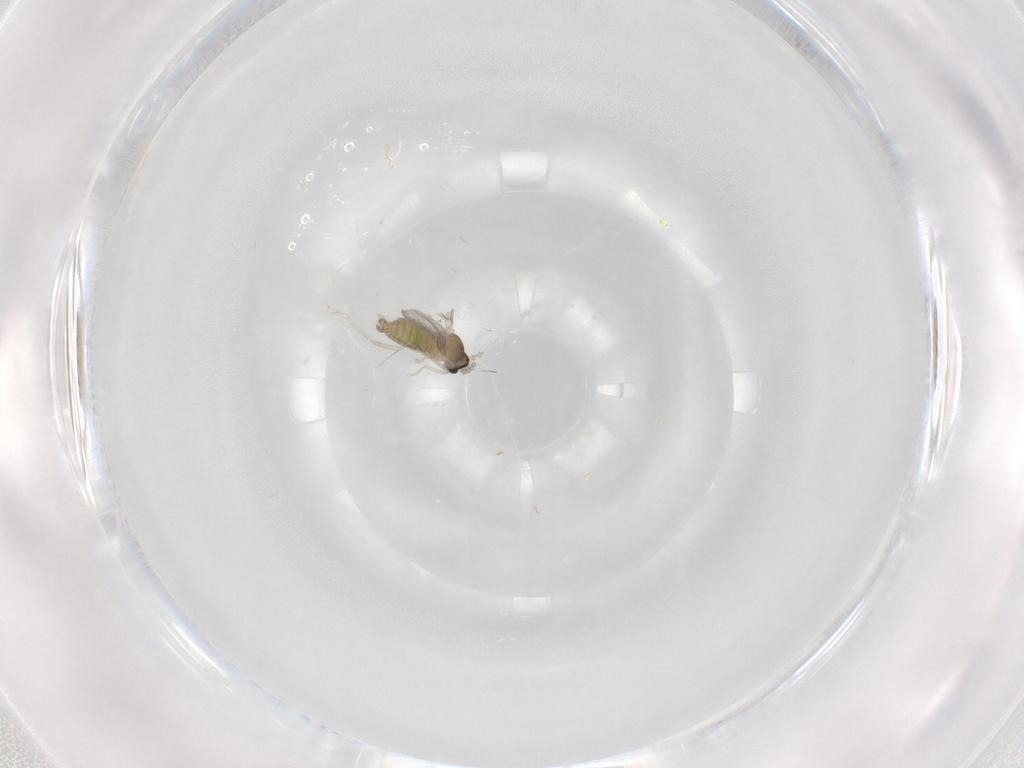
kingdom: Animalia
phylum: Arthropoda
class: Insecta
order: Diptera
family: Cecidomyiidae
